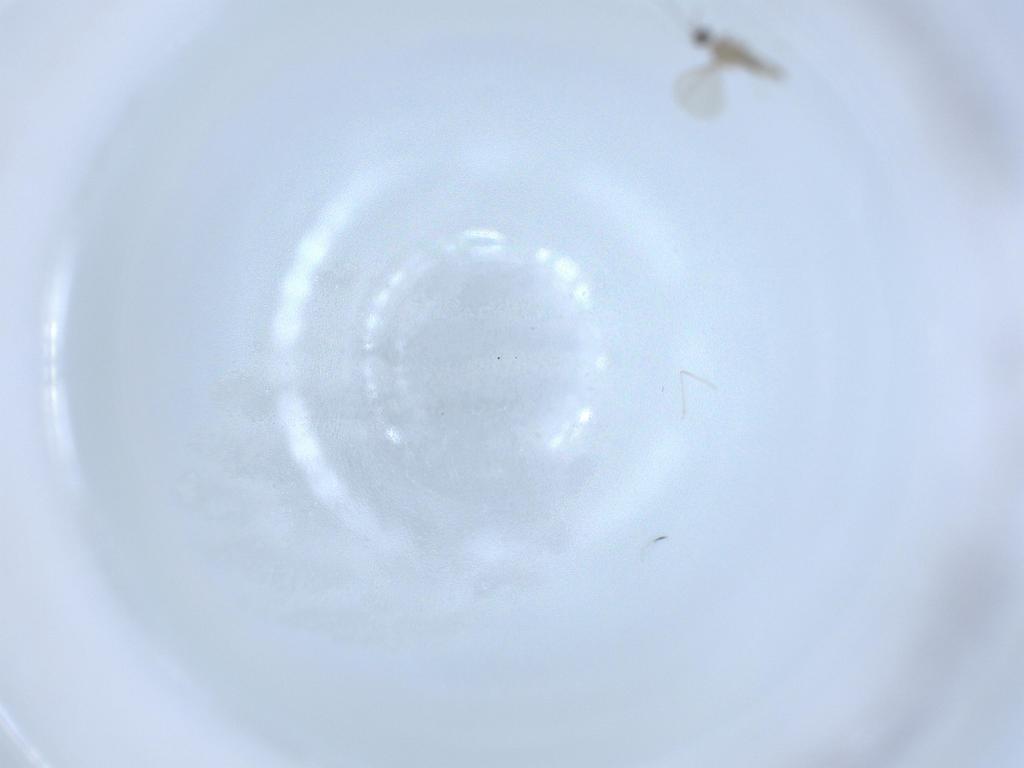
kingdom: Animalia
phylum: Arthropoda
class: Insecta
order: Diptera
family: Cecidomyiidae
